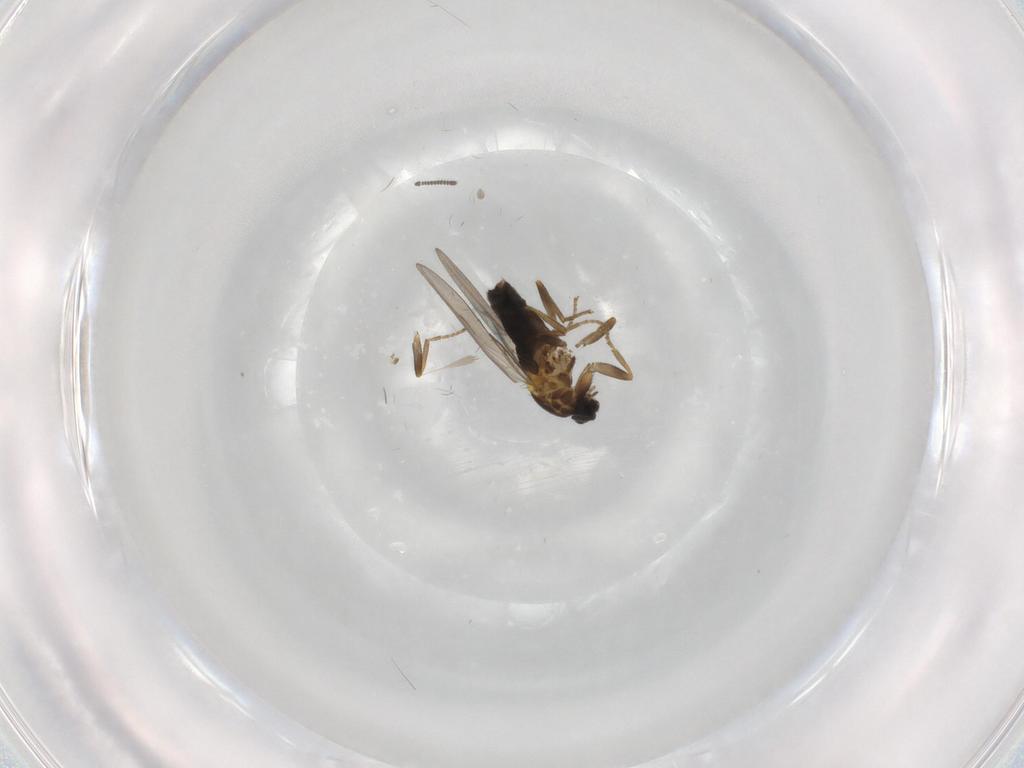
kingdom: Animalia
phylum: Arthropoda
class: Insecta
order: Diptera
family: Scatopsidae
